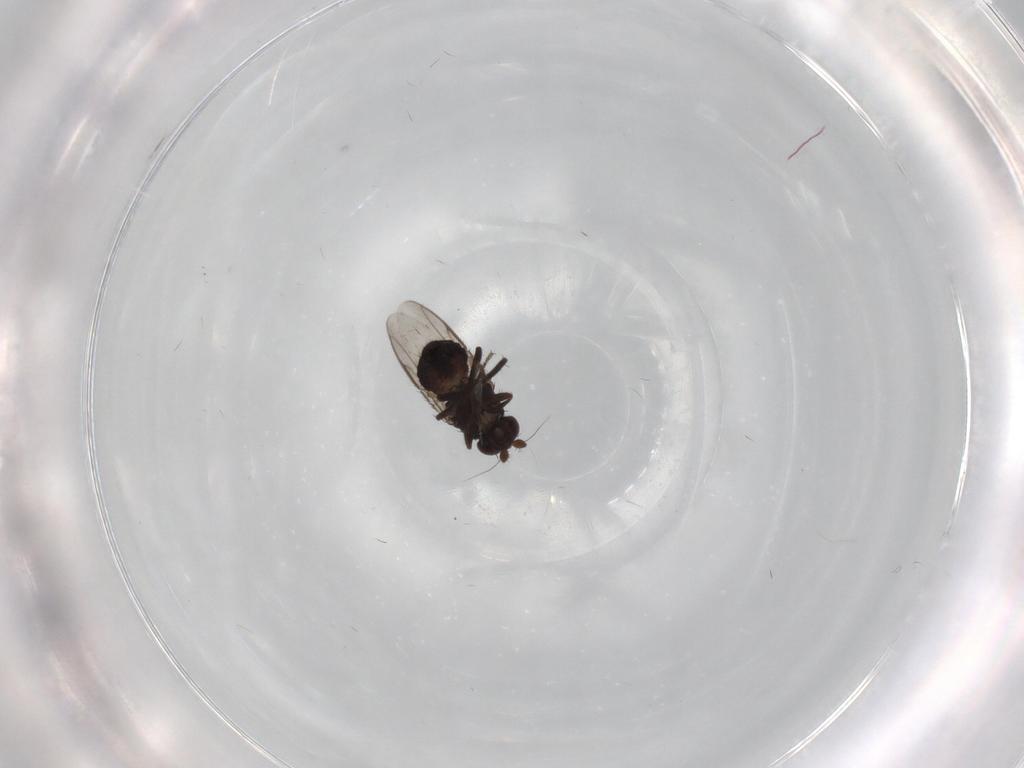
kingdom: Animalia
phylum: Arthropoda
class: Insecta
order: Diptera
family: Sphaeroceridae
